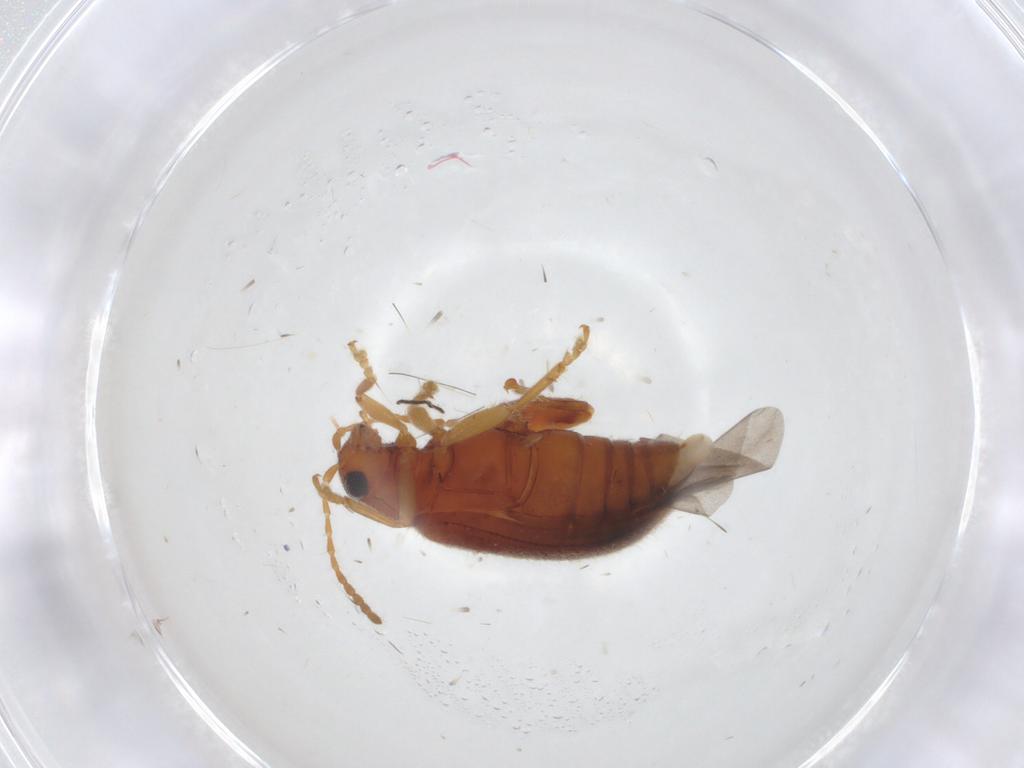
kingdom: Animalia
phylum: Arthropoda
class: Insecta
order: Coleoptera
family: Chrysomelidae
